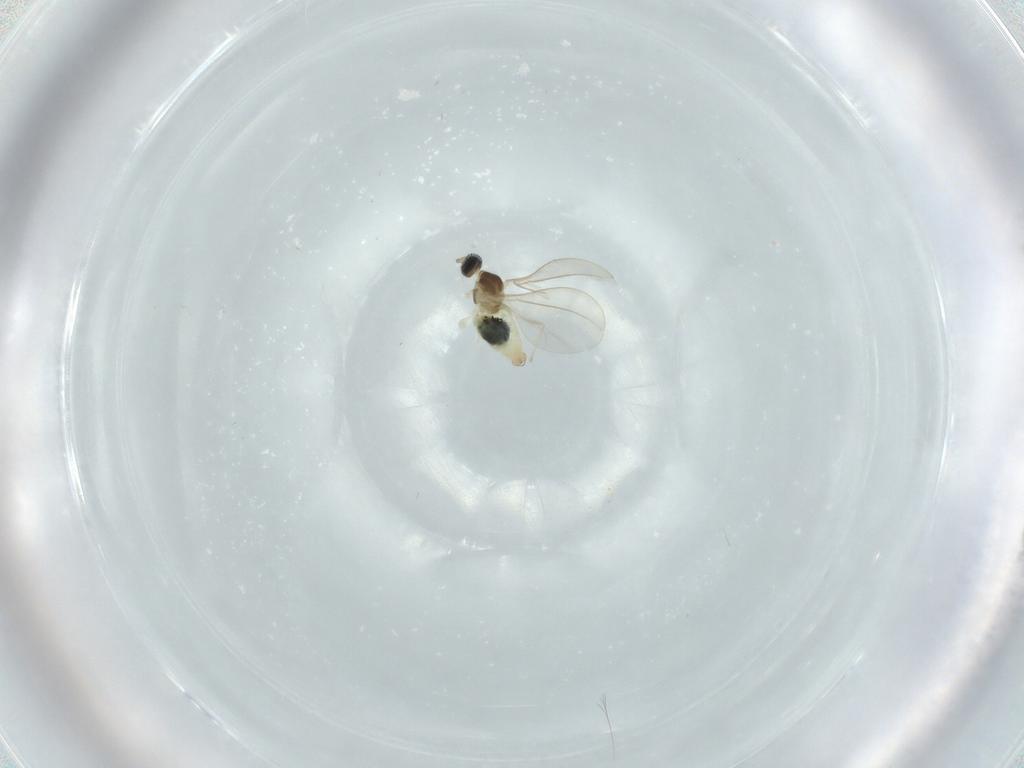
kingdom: Animalia
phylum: Arthropoda
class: Insecta
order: Diptera
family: Cecidomyiidae
